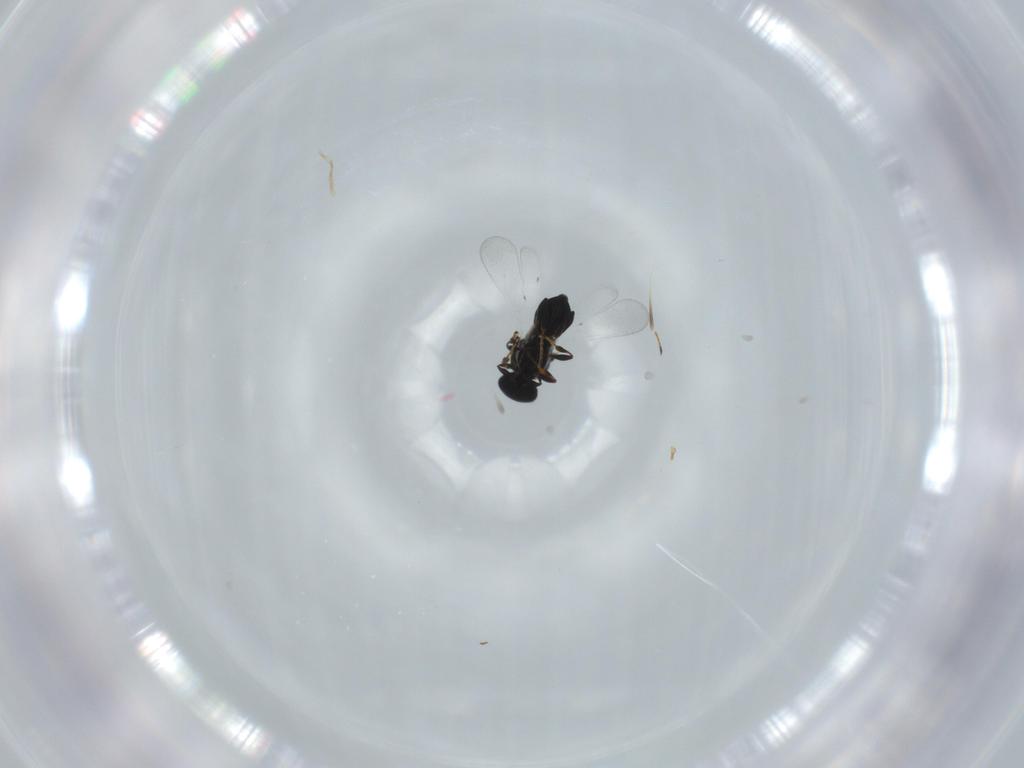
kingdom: Animalia
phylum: Arthropoda
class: Insecta
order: Hymenoptera
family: Platygastridae
